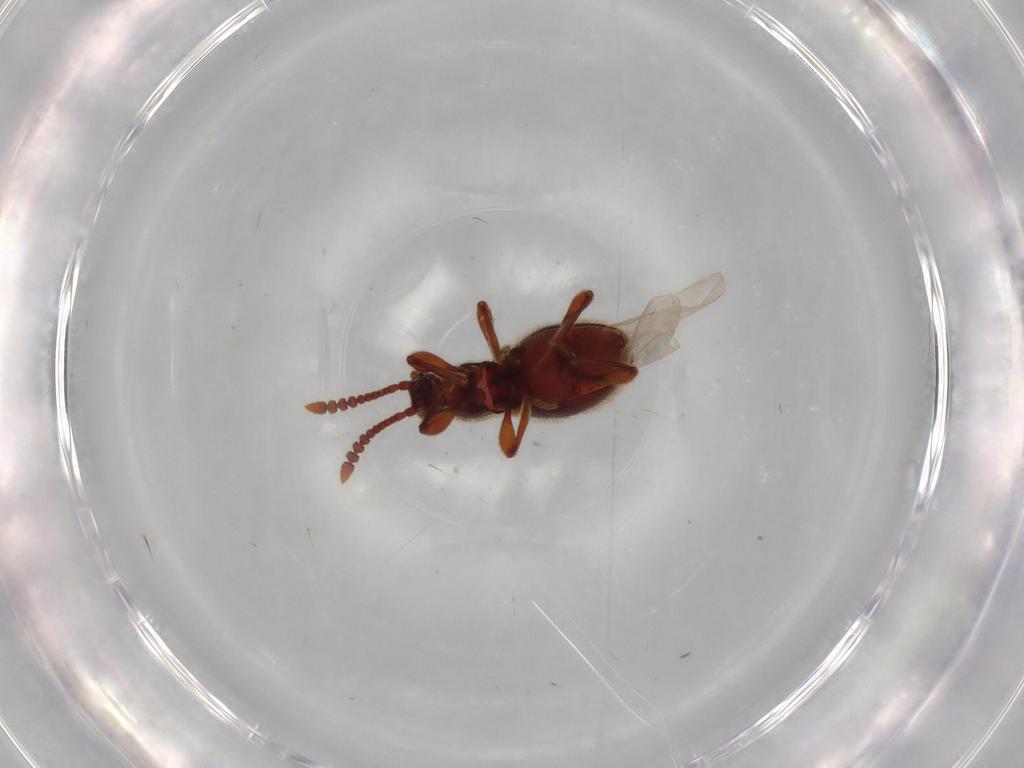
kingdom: Animalia
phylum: Arthropoda
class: Insecta
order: Coleoptera
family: Staphylinidae
